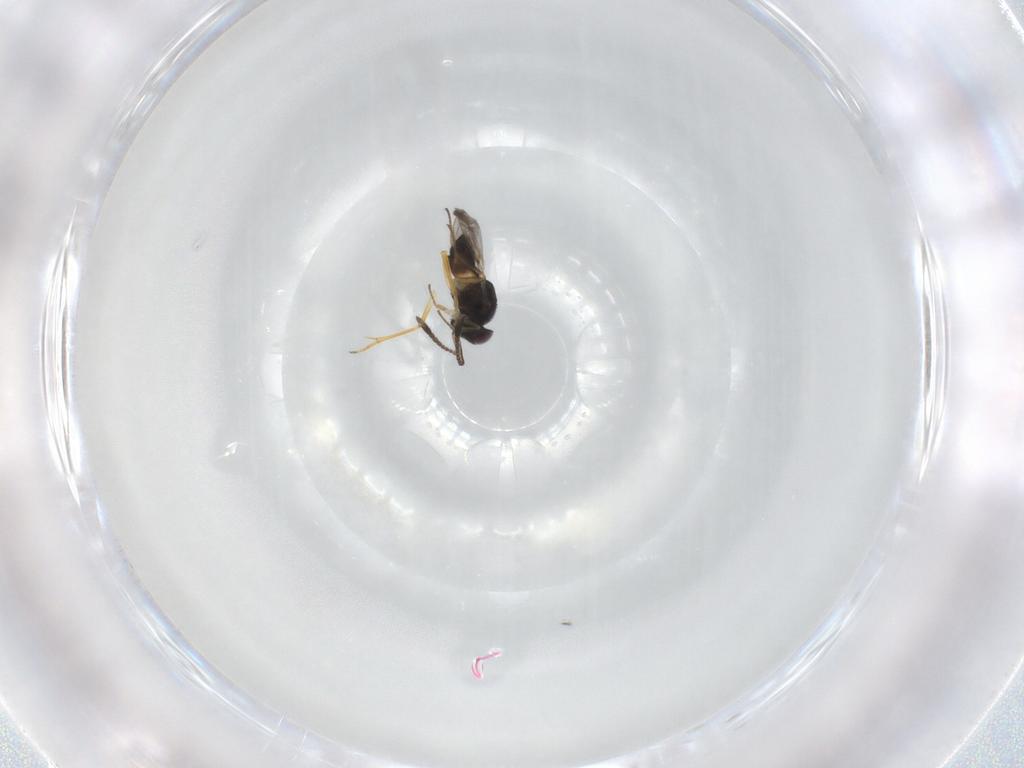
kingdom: Animalia
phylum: Arthropoda
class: Insecta
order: Hymenoptera
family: Encyrtidae
